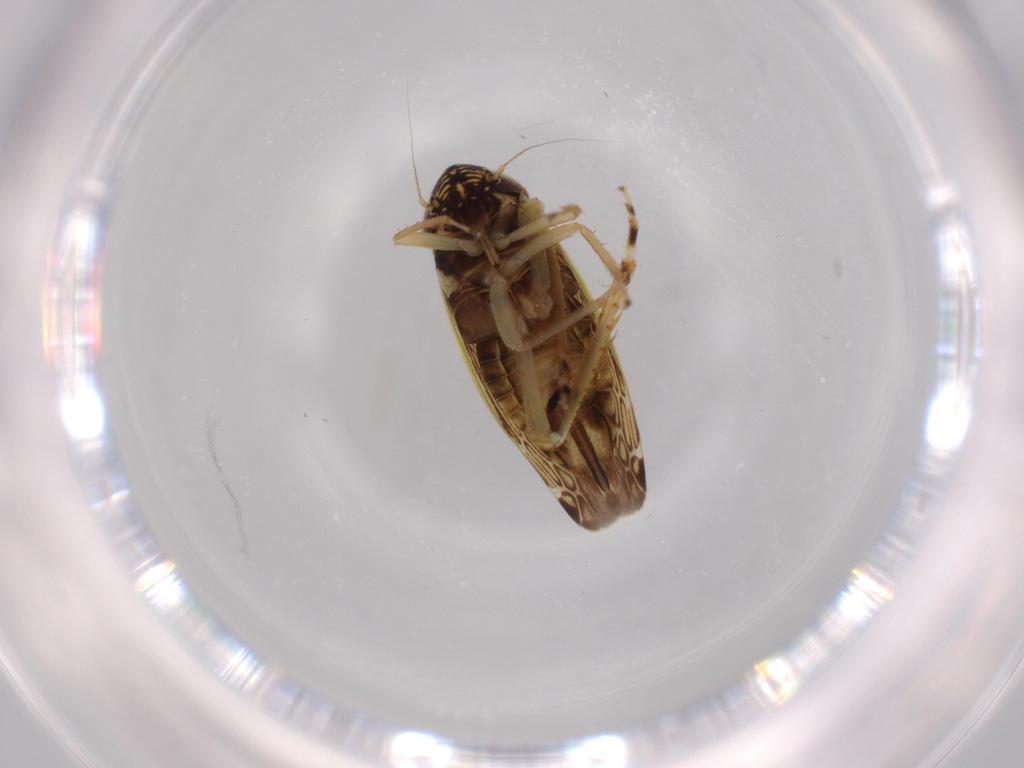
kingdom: Animalia
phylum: Arthropoda
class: Insecta
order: Hemiptera
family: Cicadellidae
